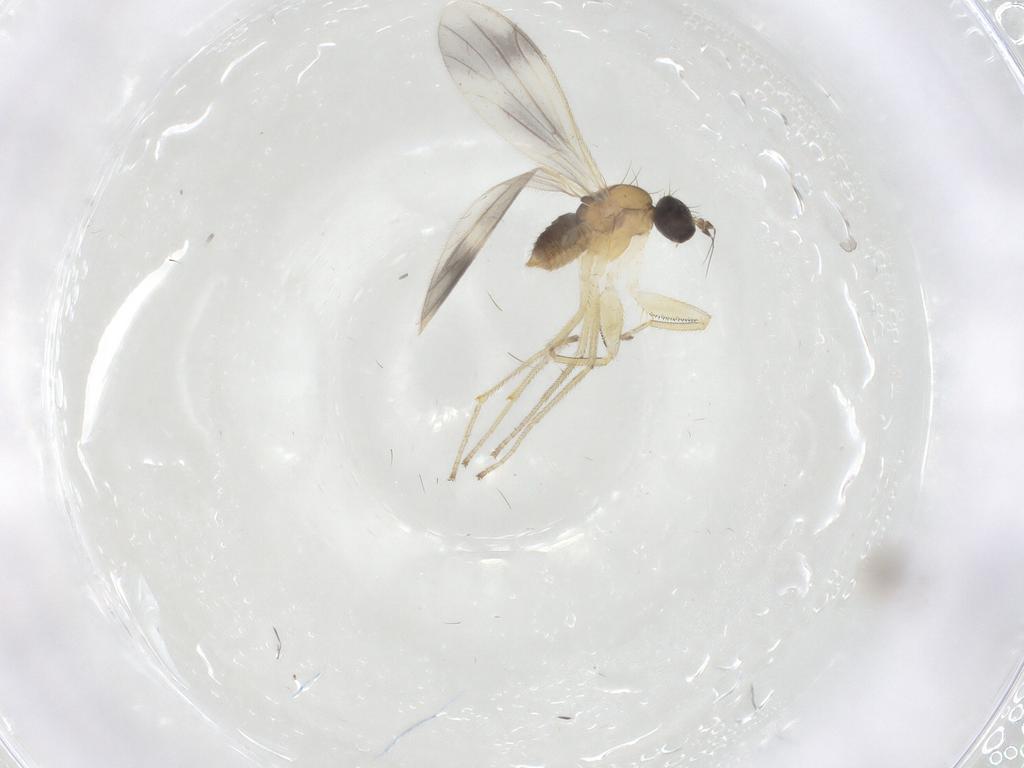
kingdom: Animalia
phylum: Arthropoda
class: Insecta
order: Diptera
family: Empididae
